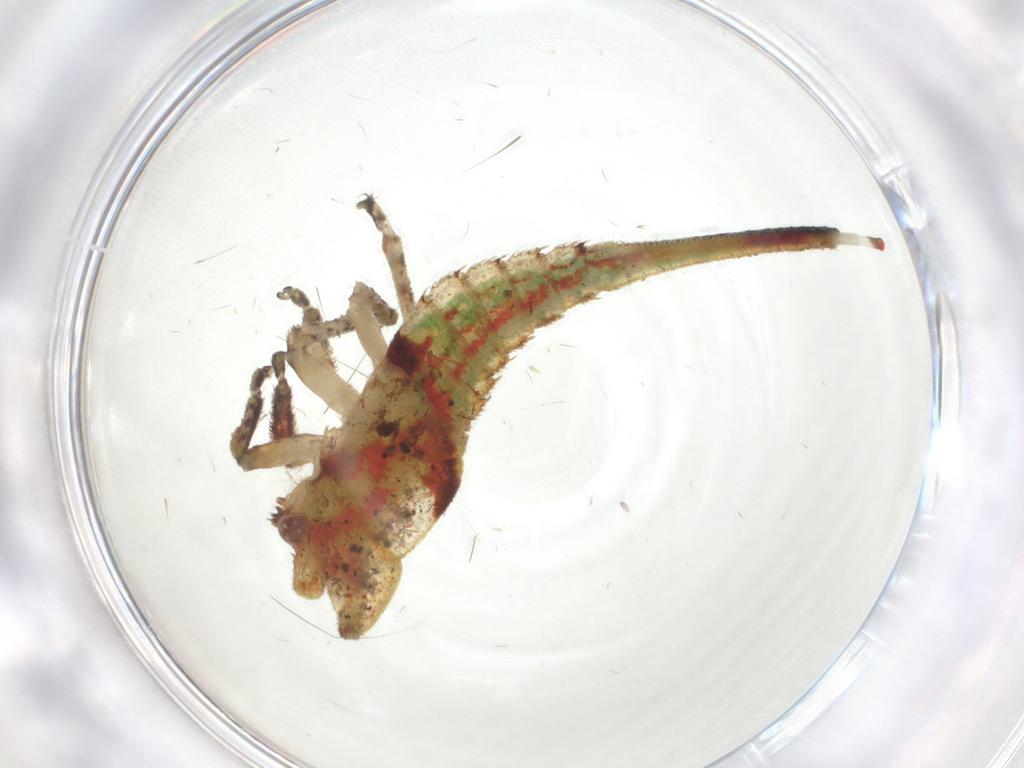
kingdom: Animalia
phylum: Arthropoda
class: Insecta
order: Hemiptera
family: Membracidae
